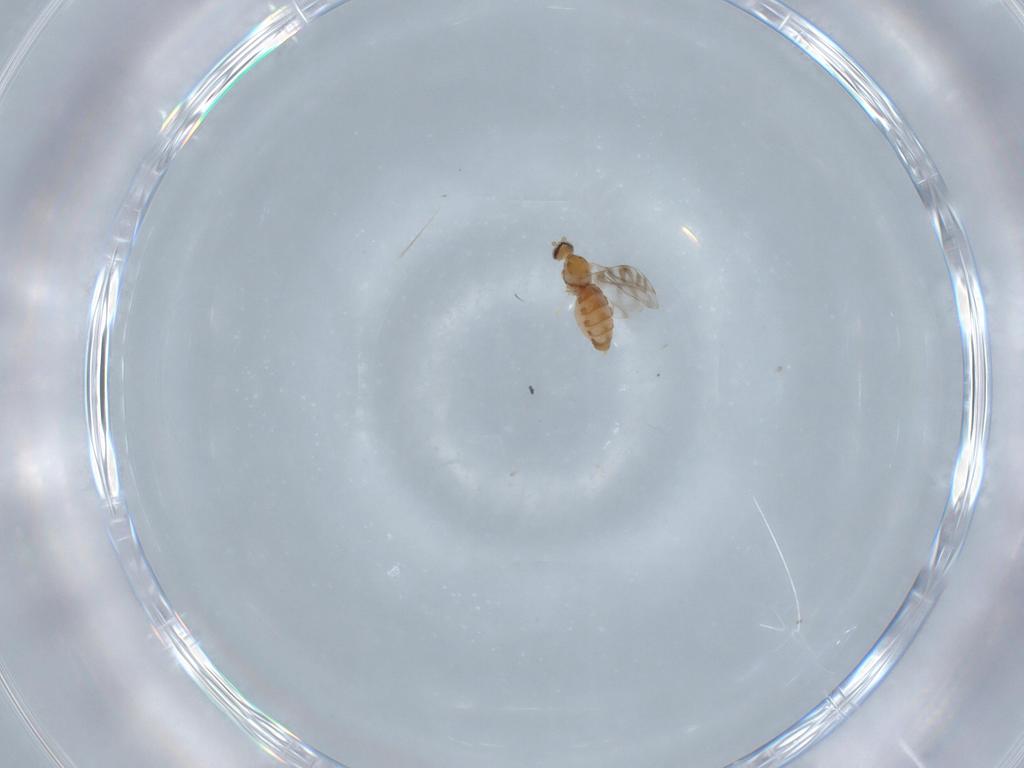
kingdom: Animalia
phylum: Arthropoda
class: Insecta
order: Diptera
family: Cecidomyiidae
